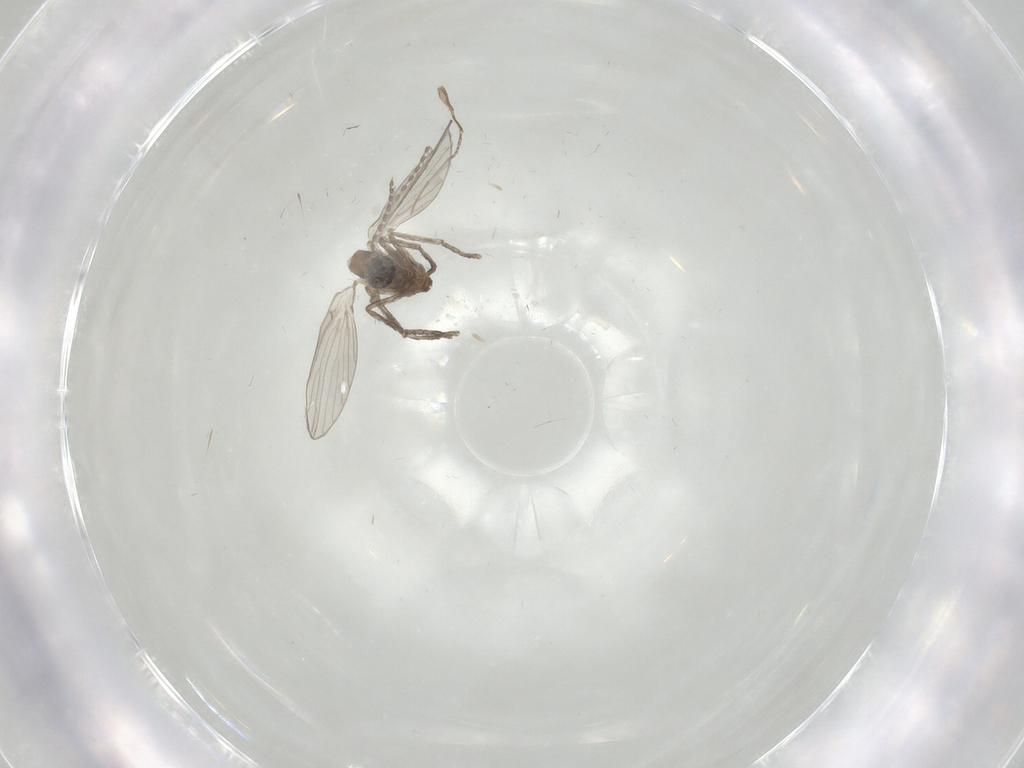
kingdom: Animalia
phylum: Arthropoda
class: Insecta
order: Diptera
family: Phoridae
